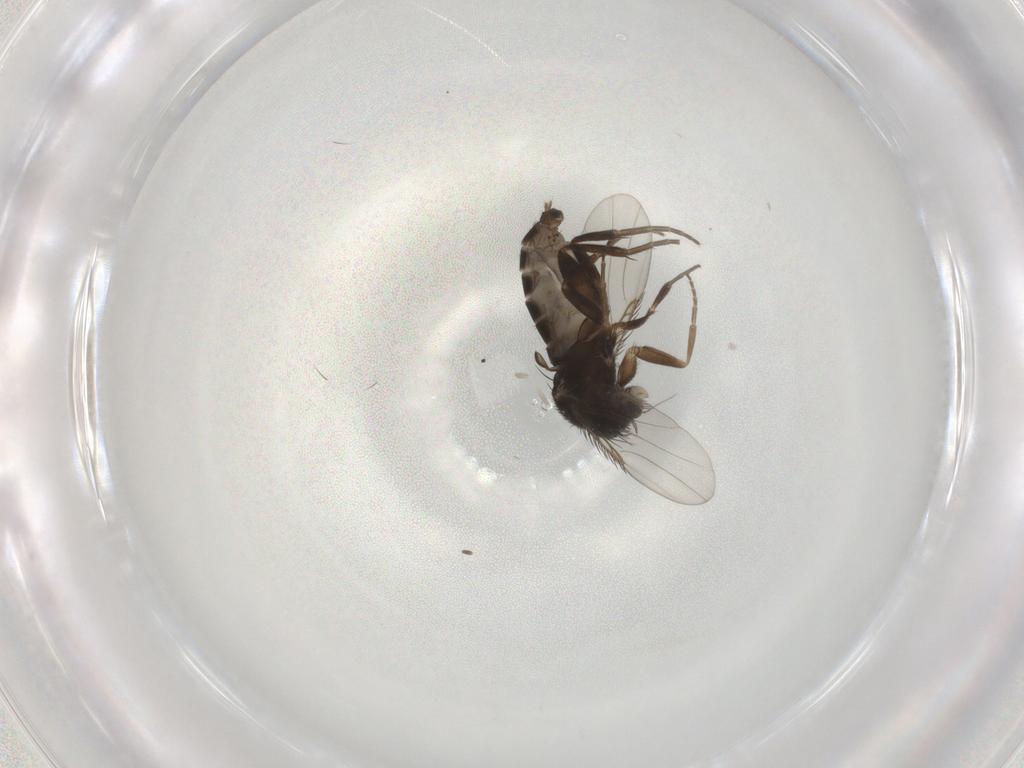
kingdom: Animalia
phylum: Arthropoda
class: Insecta
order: Diptera
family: Phoridae
